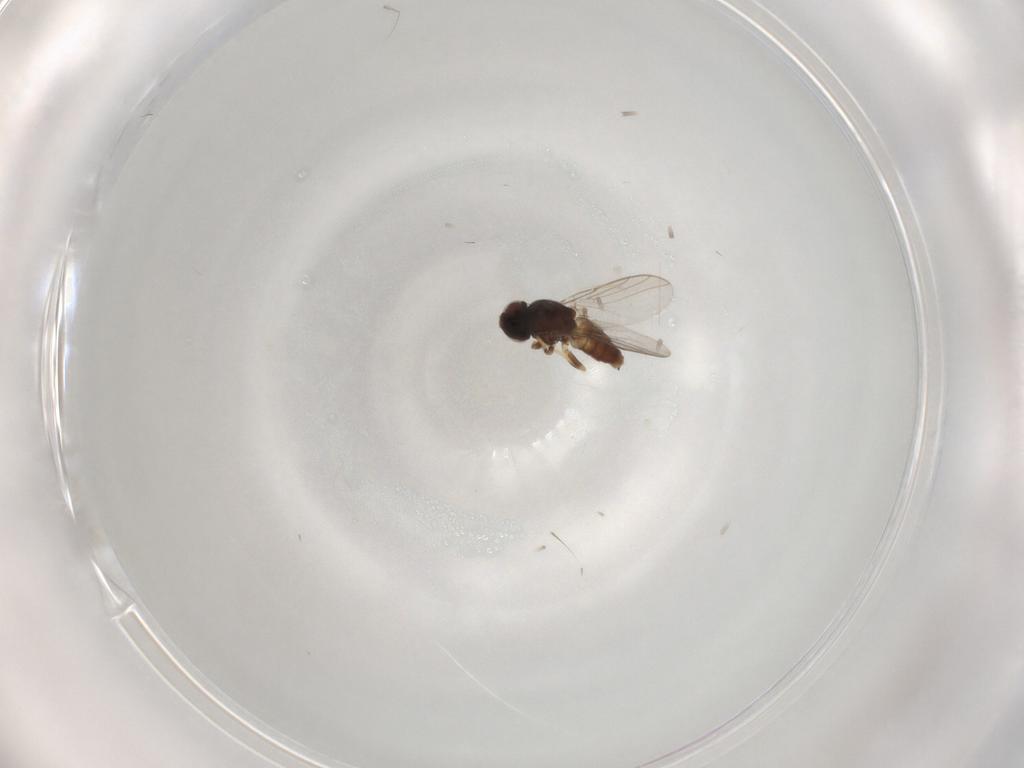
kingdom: Animalia
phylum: Arthropoda
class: Insecta
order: Diptera
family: Chloropidae
